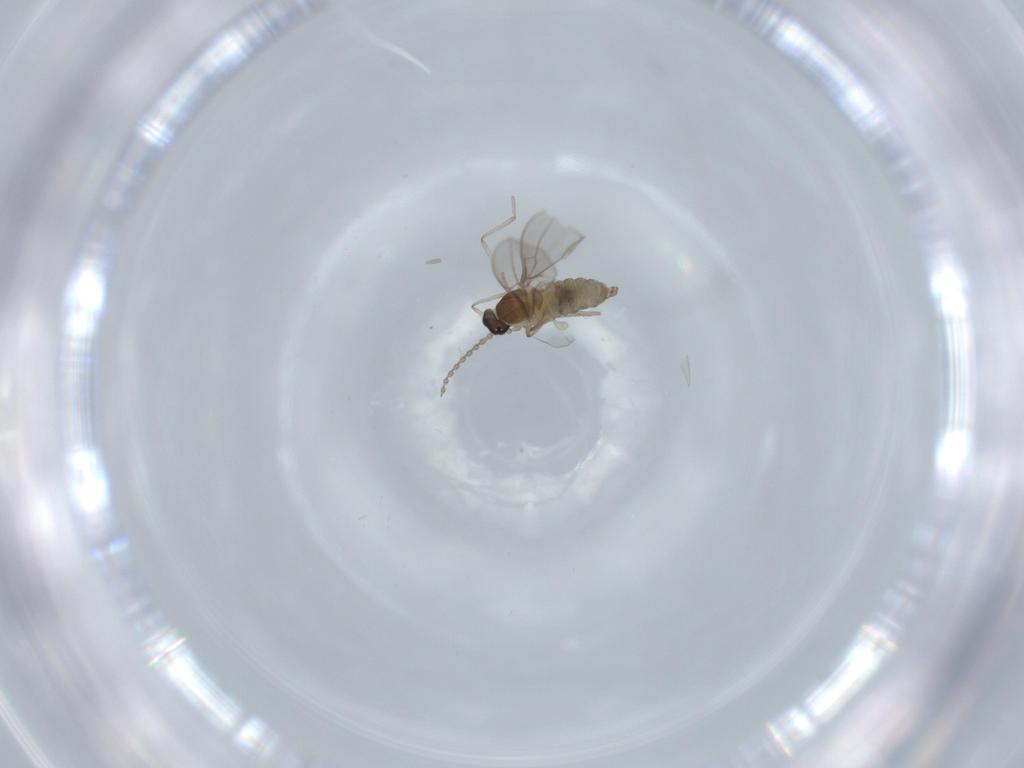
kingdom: Animalia
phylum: Arthropoda
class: Insecta
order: Diptera
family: Cecidomyiidae
